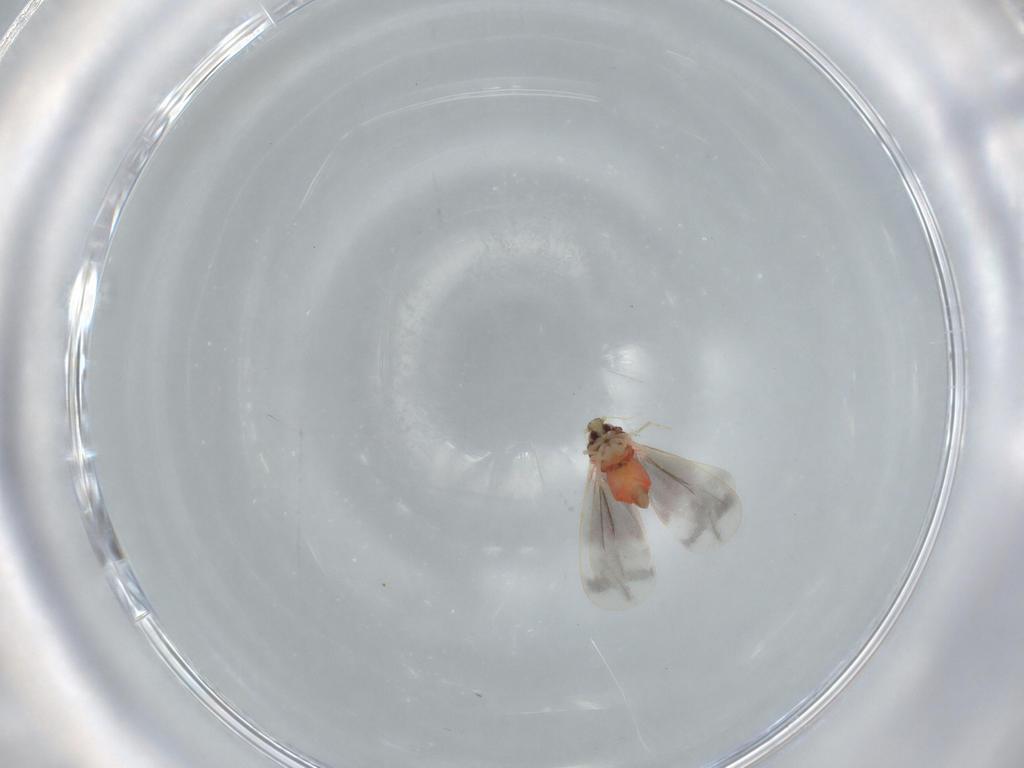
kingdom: Animalia
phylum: Arthropoda
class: Insecta
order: Hemiptera
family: Aleyrodidae
